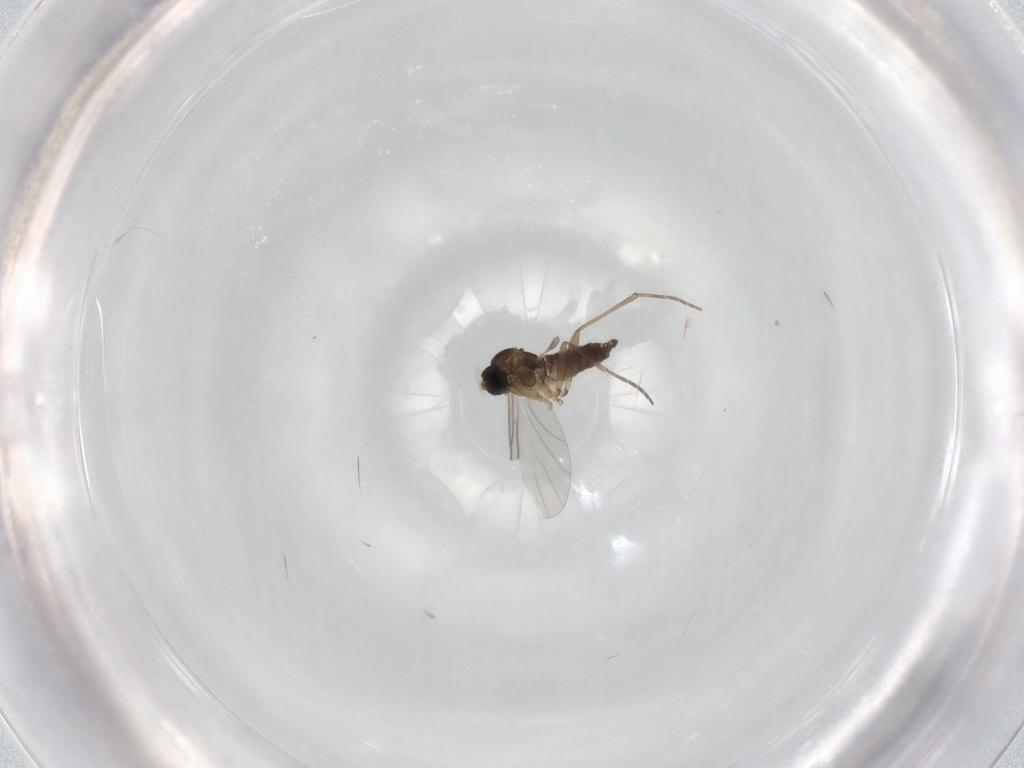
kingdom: Animalia
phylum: Arthropoda
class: Insecta
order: Diptera
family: Sciaridae
